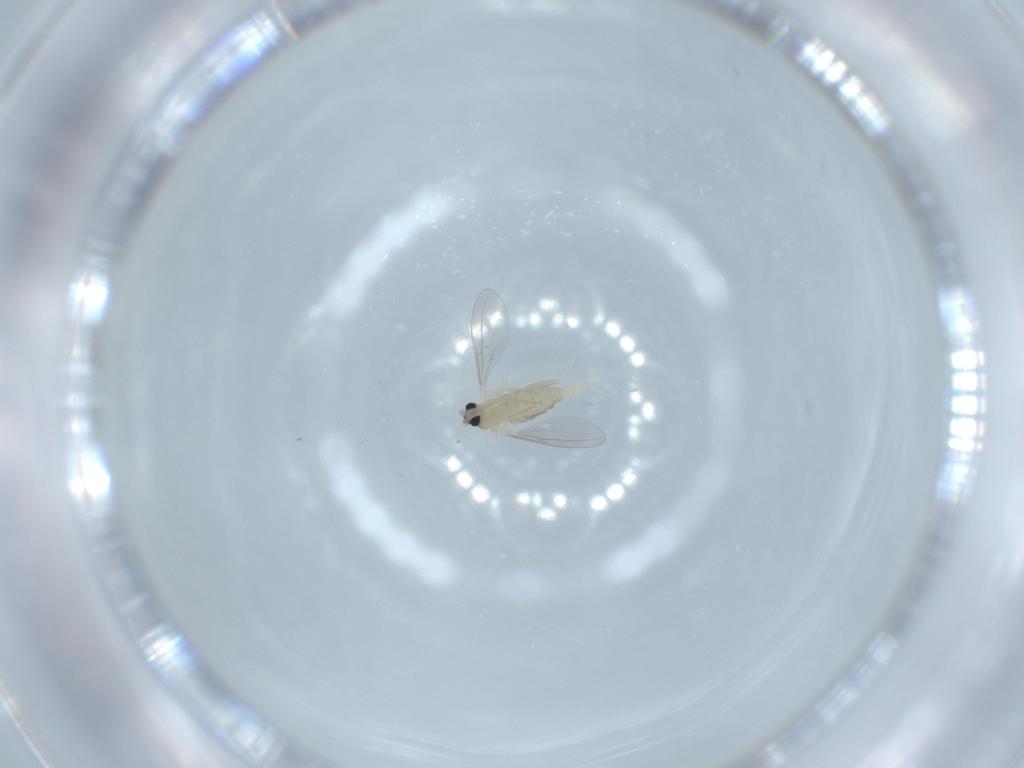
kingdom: Animalia
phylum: Arthropoda
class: Insecta
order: Diptera
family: Cecidomyiidae
